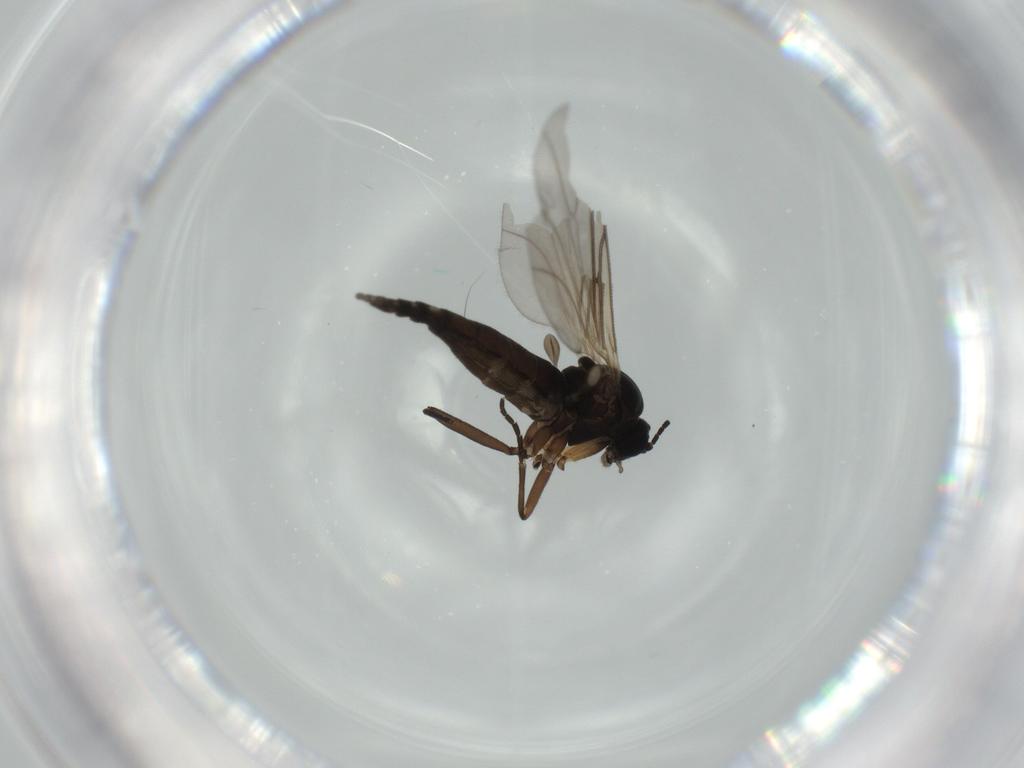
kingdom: Animalia
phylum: Arthropoda
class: Insecta
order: Diptera
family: Sciaridae
